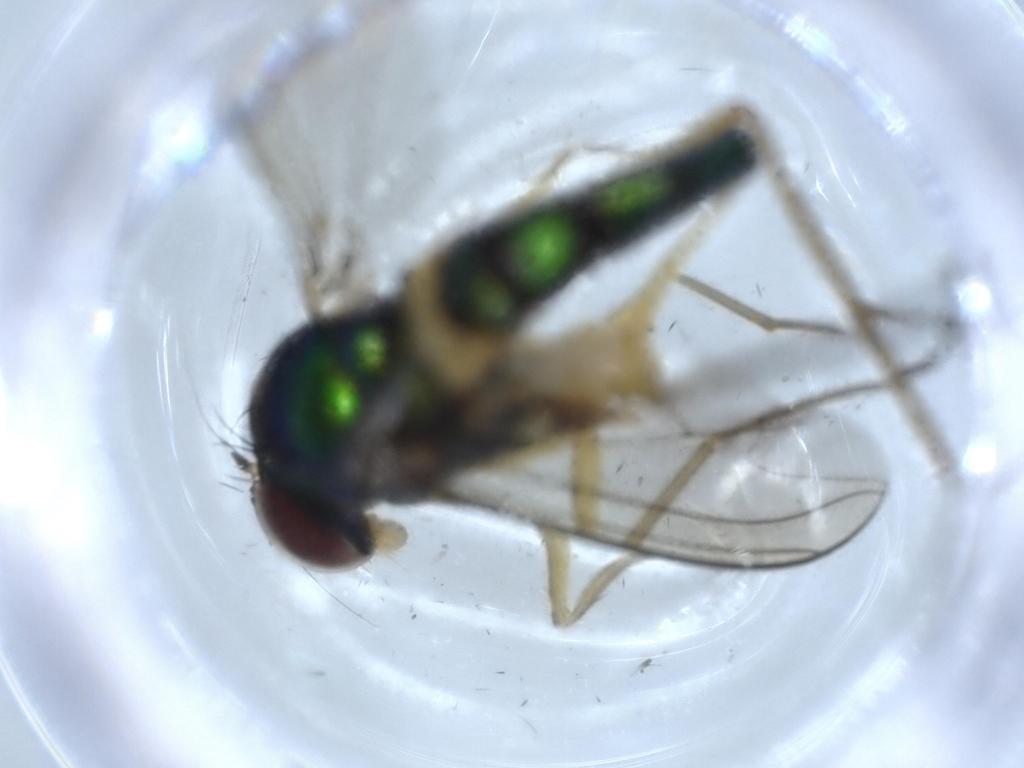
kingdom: Animalia
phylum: Arthropoda
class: Insecta
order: Diptera
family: Dolichopodidae
